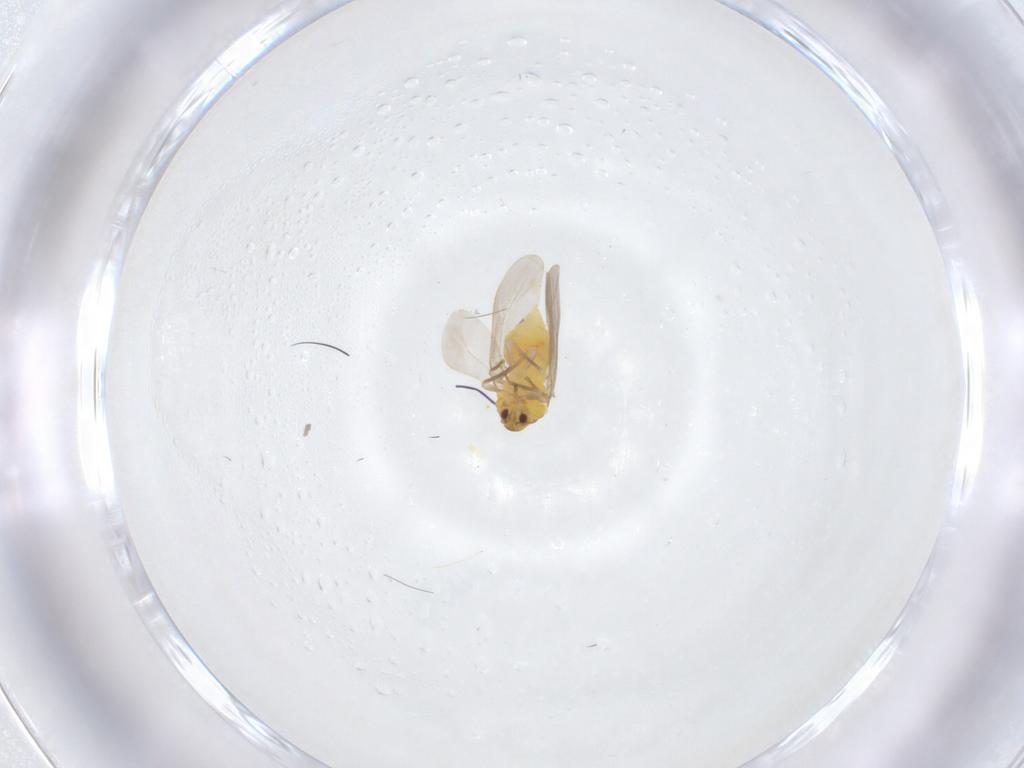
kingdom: Animalia
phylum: Arthropoda
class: Insecta
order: Hemiptera
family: Aleyrodidae
